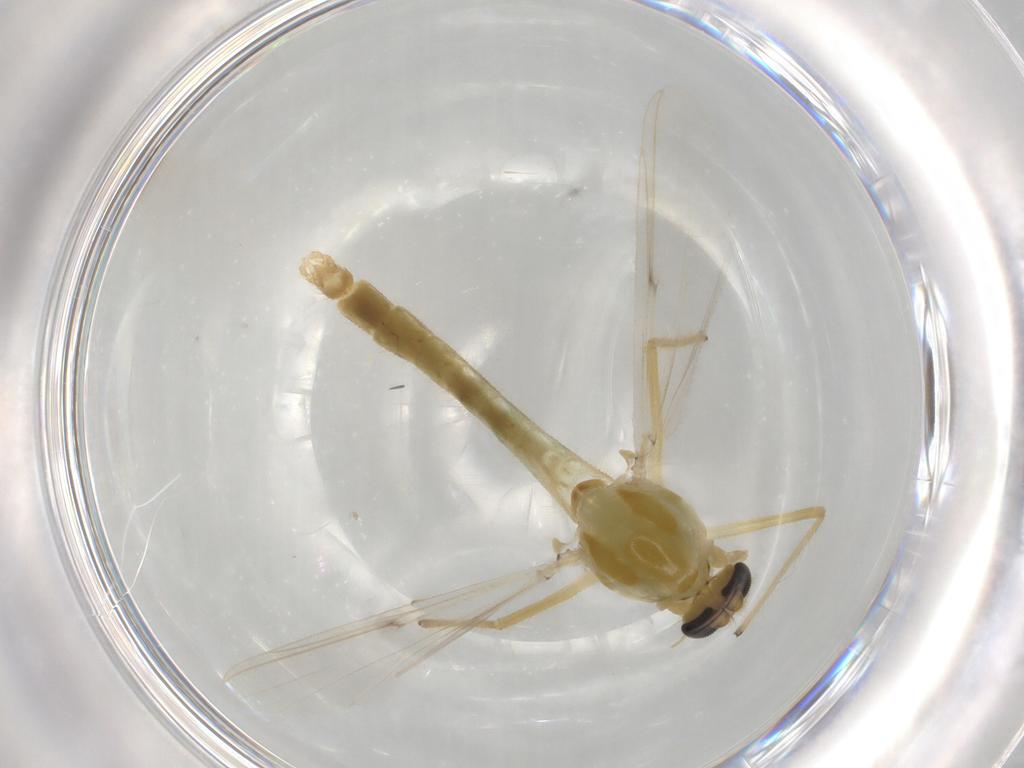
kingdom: Animalia
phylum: Arthropoda
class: Insecta
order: Diptera
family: Chironomidae
